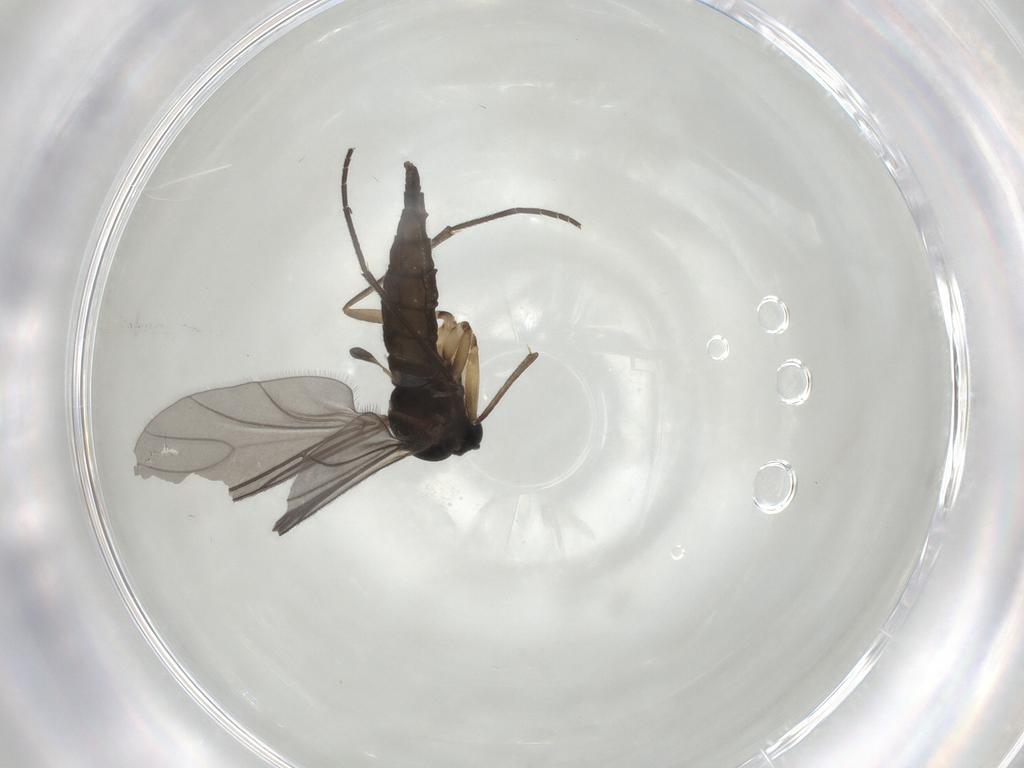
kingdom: Animalia
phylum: Arthropoda
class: Insecta
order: Diptera
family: Sciaridae
